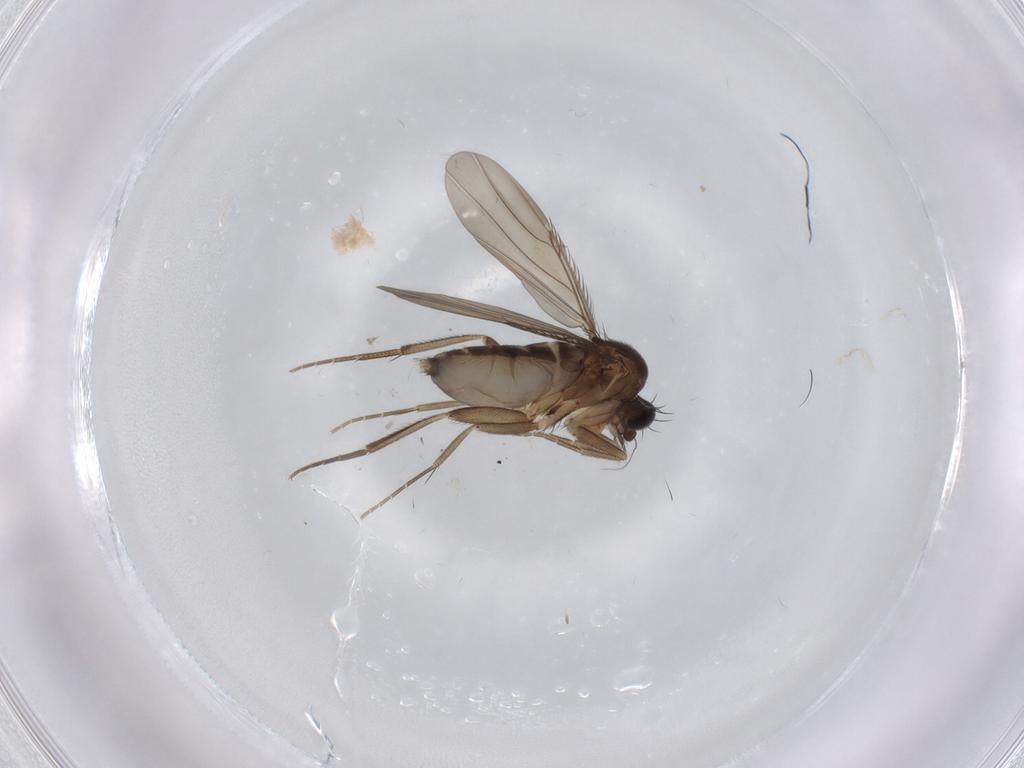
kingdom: Animalia
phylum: Arthropoda
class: Insecta
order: Diptera
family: Phoridae
